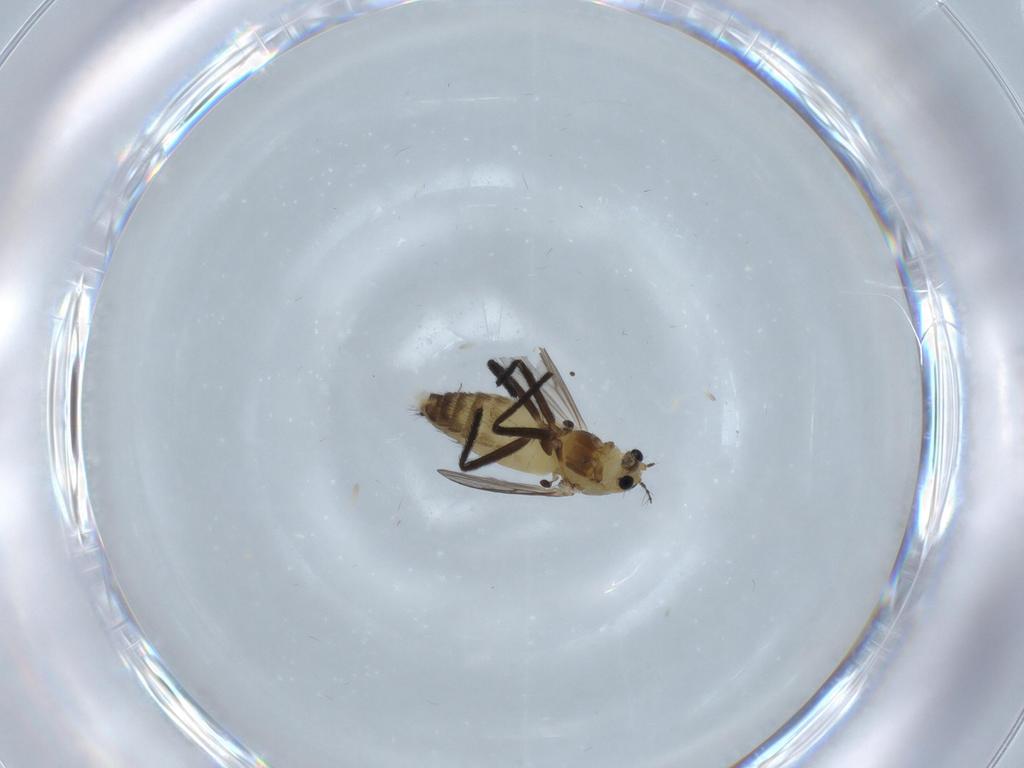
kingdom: Animalia
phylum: Arthropoda
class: Insecta
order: Diptera
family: Chironomidae
